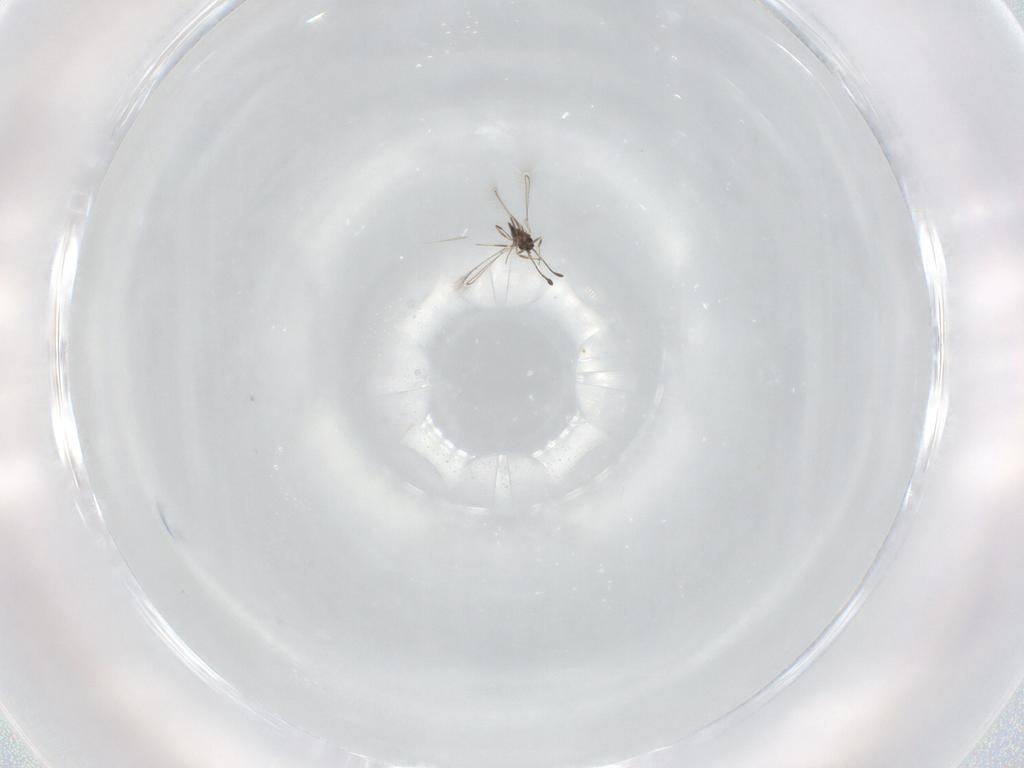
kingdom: Animalia
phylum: Arthropoda
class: Insecta
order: Hymenoptera
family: Mymaridae
